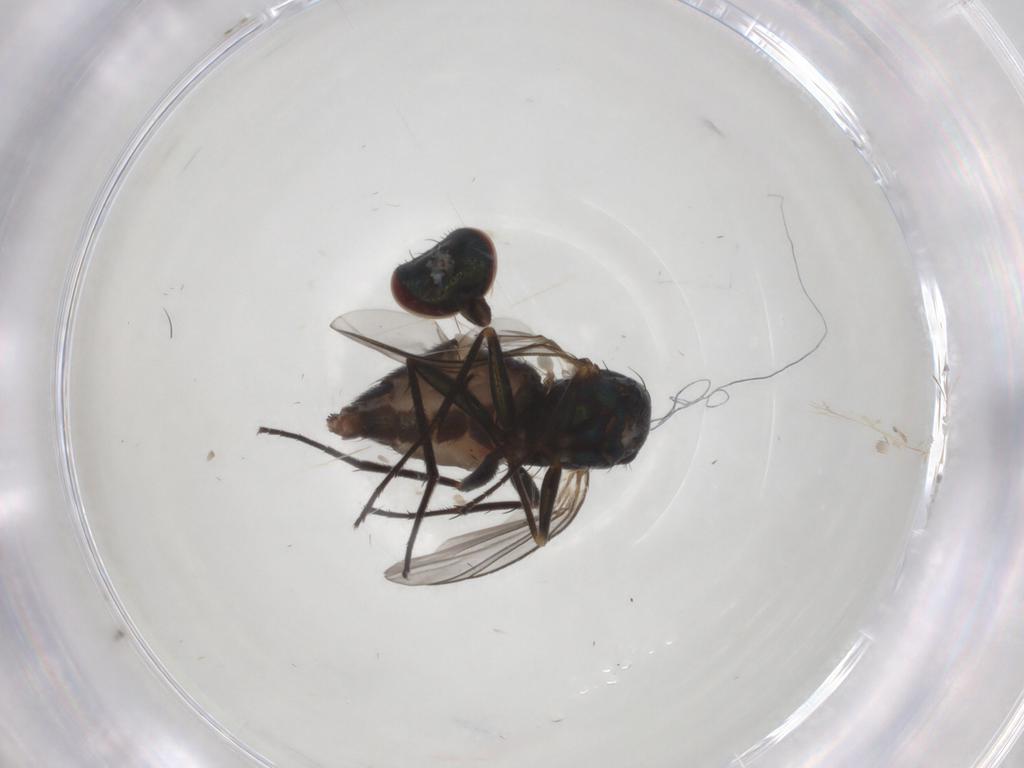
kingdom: Animalia
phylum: Arthropoda
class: Insecta
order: Diptera
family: Dolichopodidae
